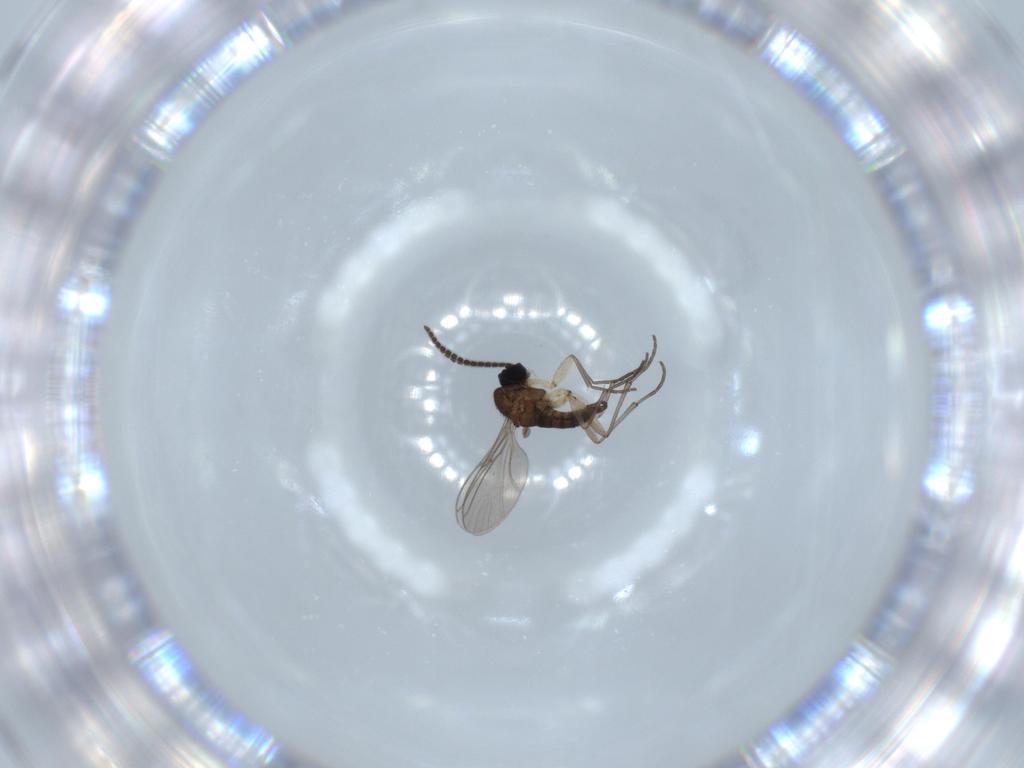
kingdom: Animalia
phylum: Arthropoda
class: Insecta
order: Diptera
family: Sciaridae
